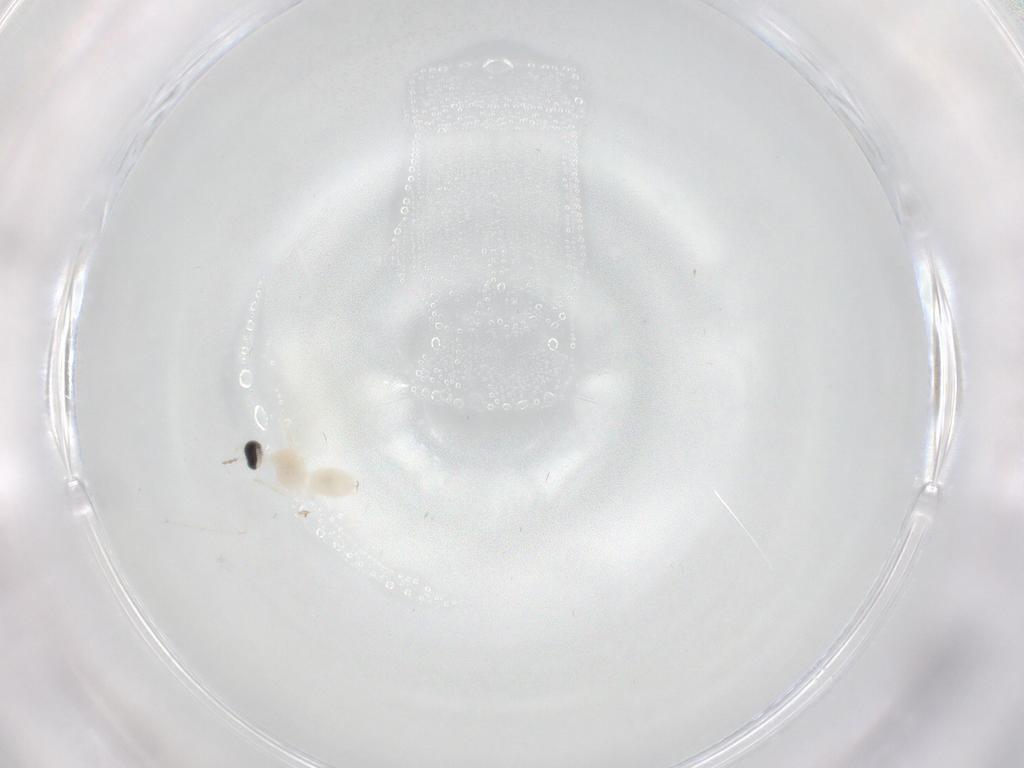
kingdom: Animalia
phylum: Arthropoda
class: Insecta
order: Diptera
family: Cecidomyiidae
